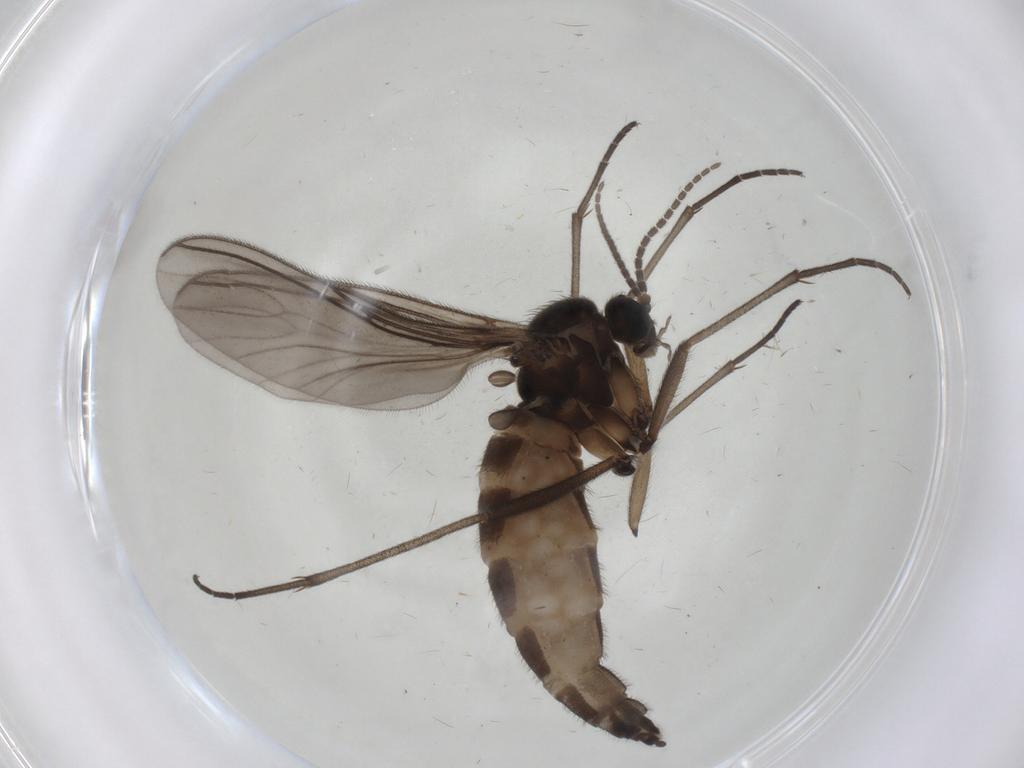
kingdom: Animalia
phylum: Arthropoda
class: Insecta
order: Diptera
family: Sciaridae
